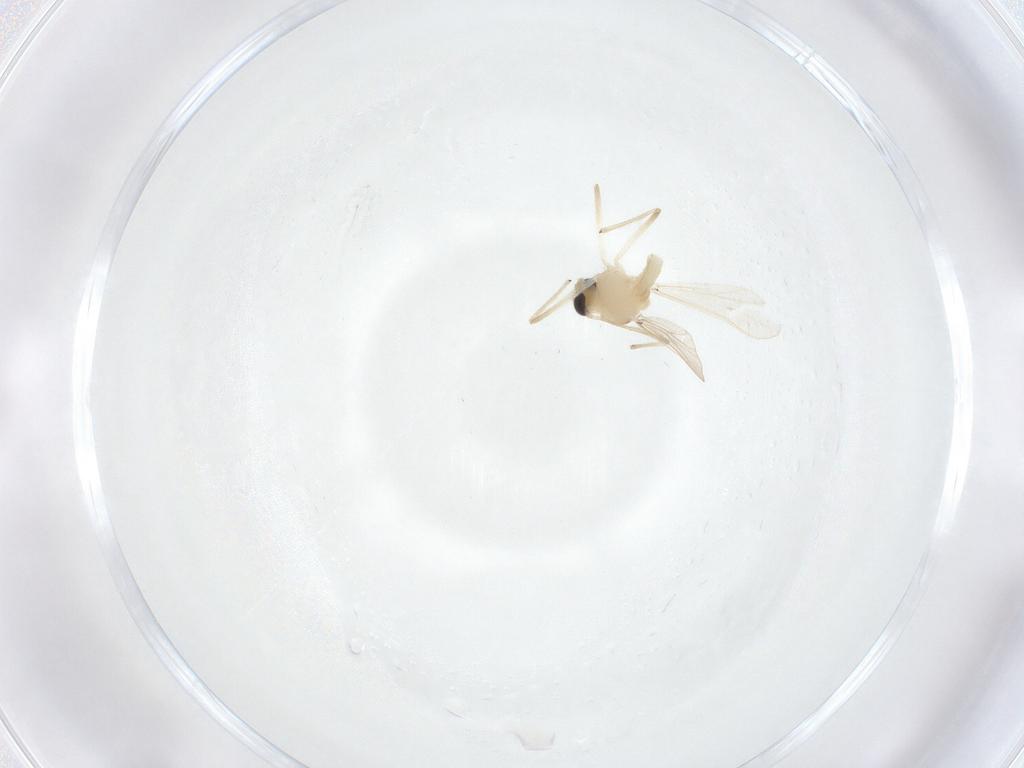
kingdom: Animalia
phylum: Arthropoda
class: Insecta
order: Diptera
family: Chironomidae
